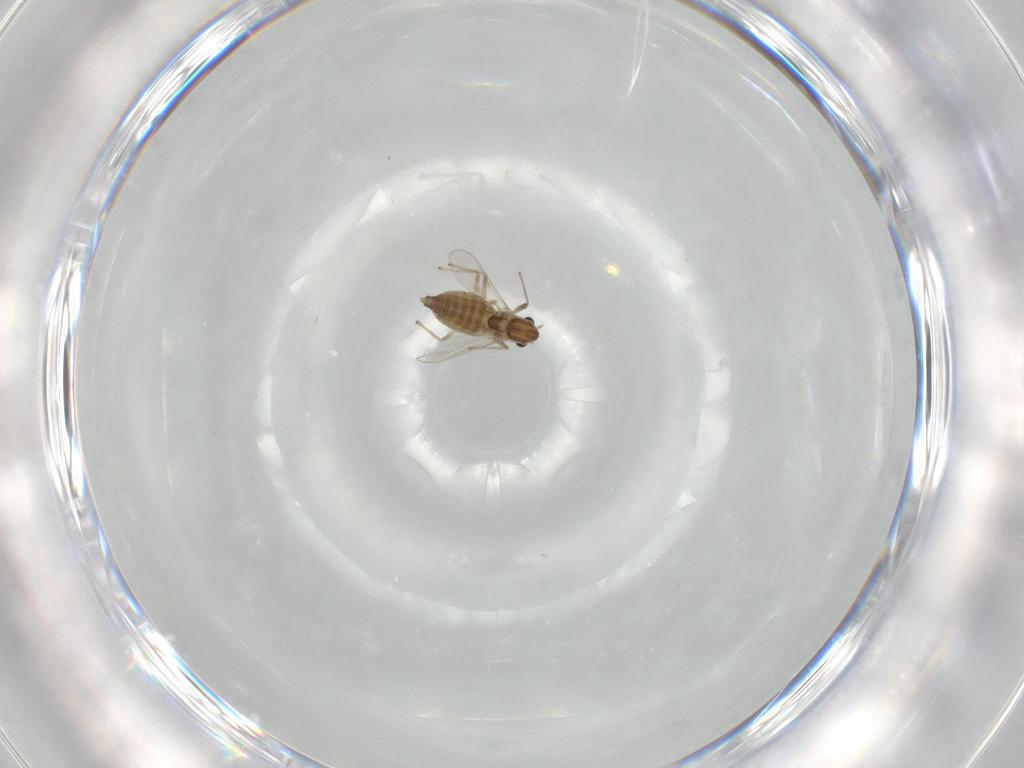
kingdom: Animalia
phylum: Arthropoda
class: Insecta
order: Diptera
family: Chironomidae
